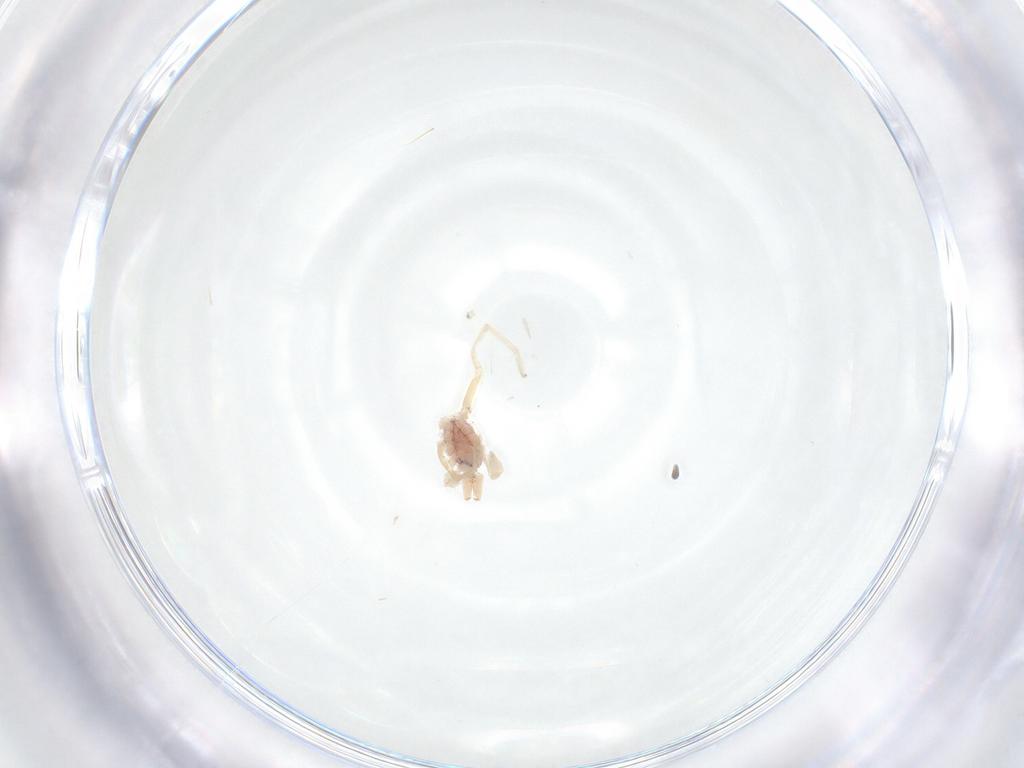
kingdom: Animalia
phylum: Arthropoda
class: Arachnida
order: Araneae
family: Idiopidae
